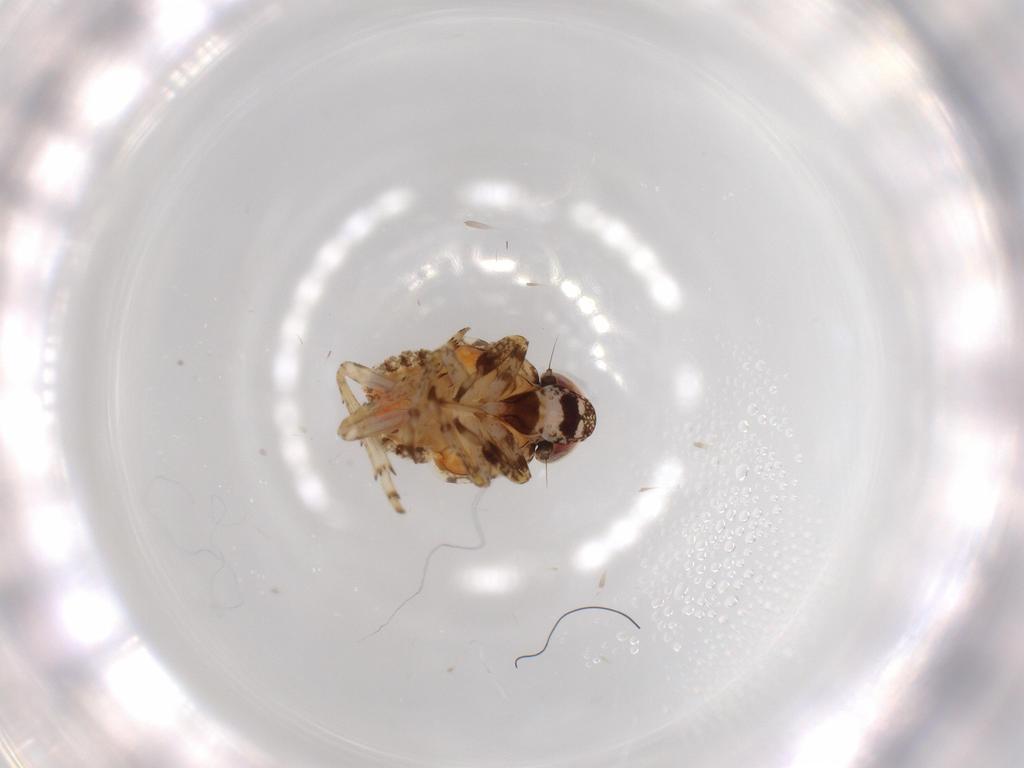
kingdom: Animalia
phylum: Arthropoda
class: Insecta
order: Hemiptera
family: Issidae
